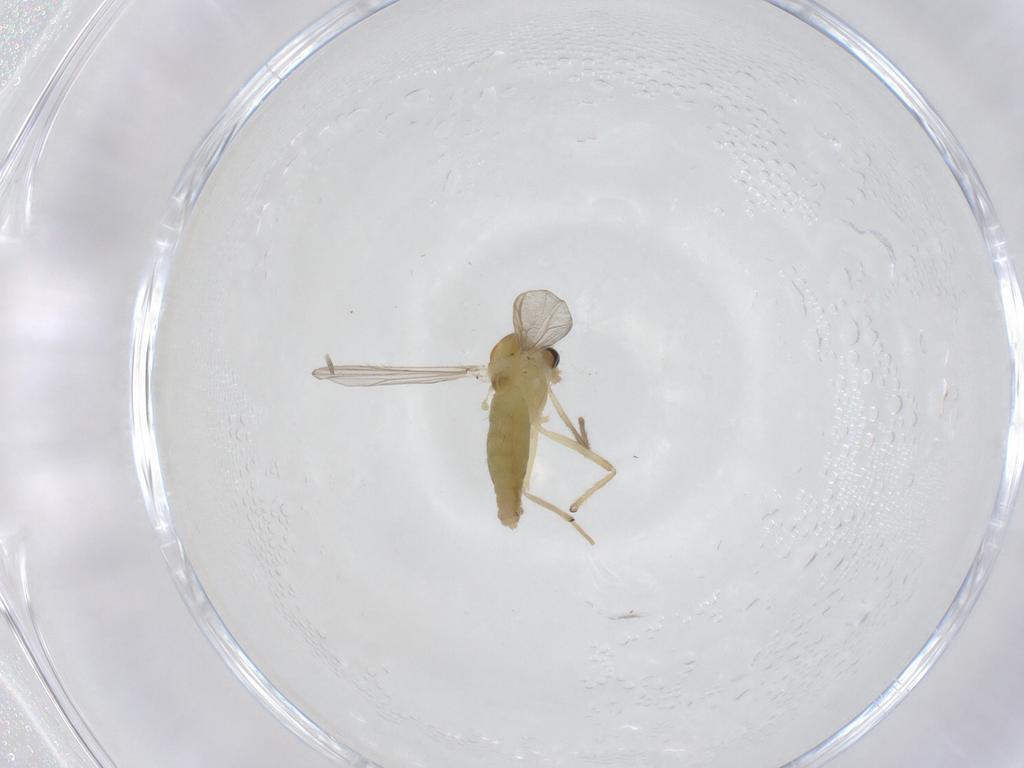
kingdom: Animalia
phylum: Arthropoda
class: Insecta
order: Diptera
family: Chironomidae
